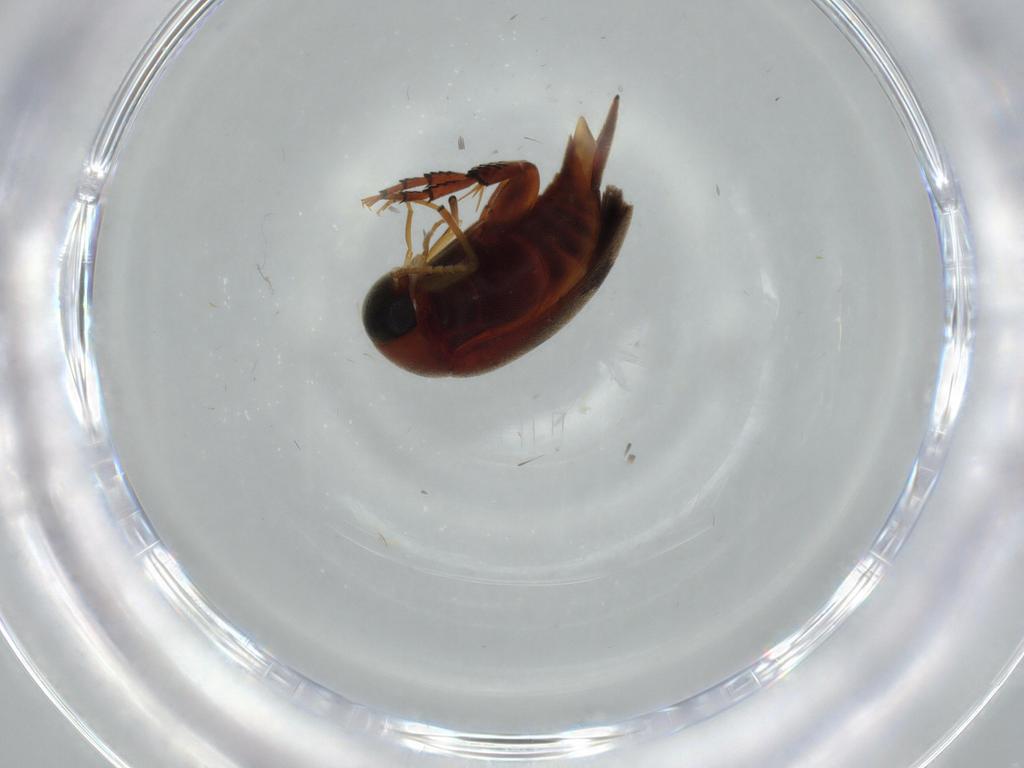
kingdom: Animalia
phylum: Arthropoda
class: Insecta
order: Coleoptera
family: Curculionidae
